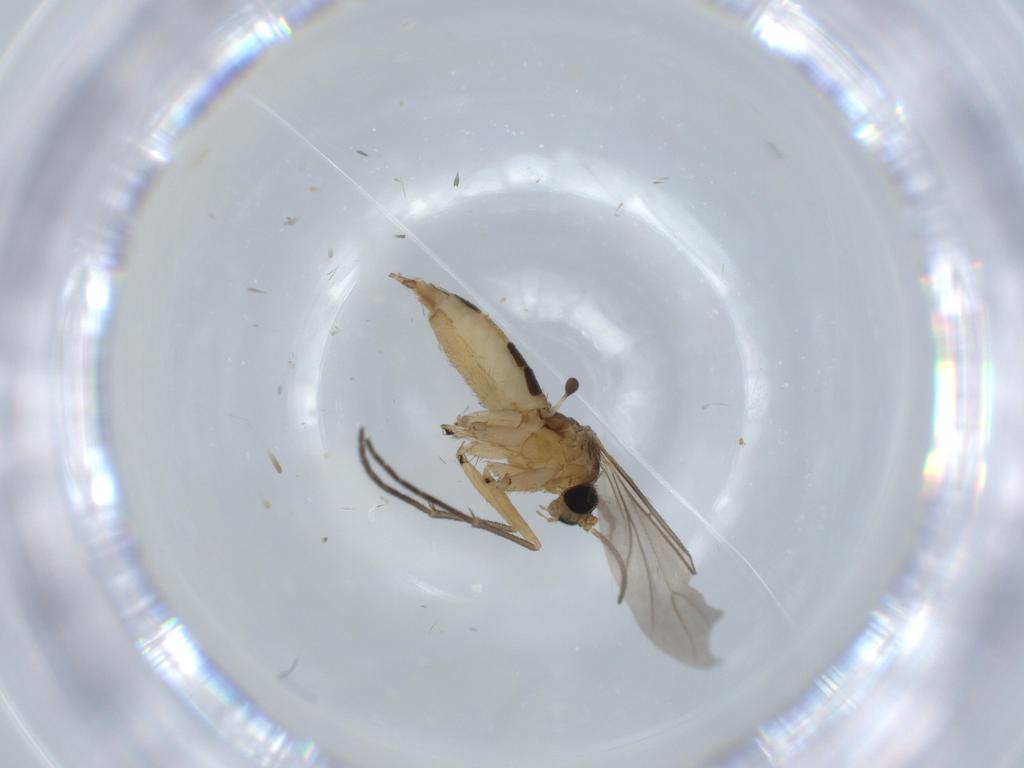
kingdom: Animalia
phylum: Arthropoda
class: Insecta
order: Diptera
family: Sciaridae
